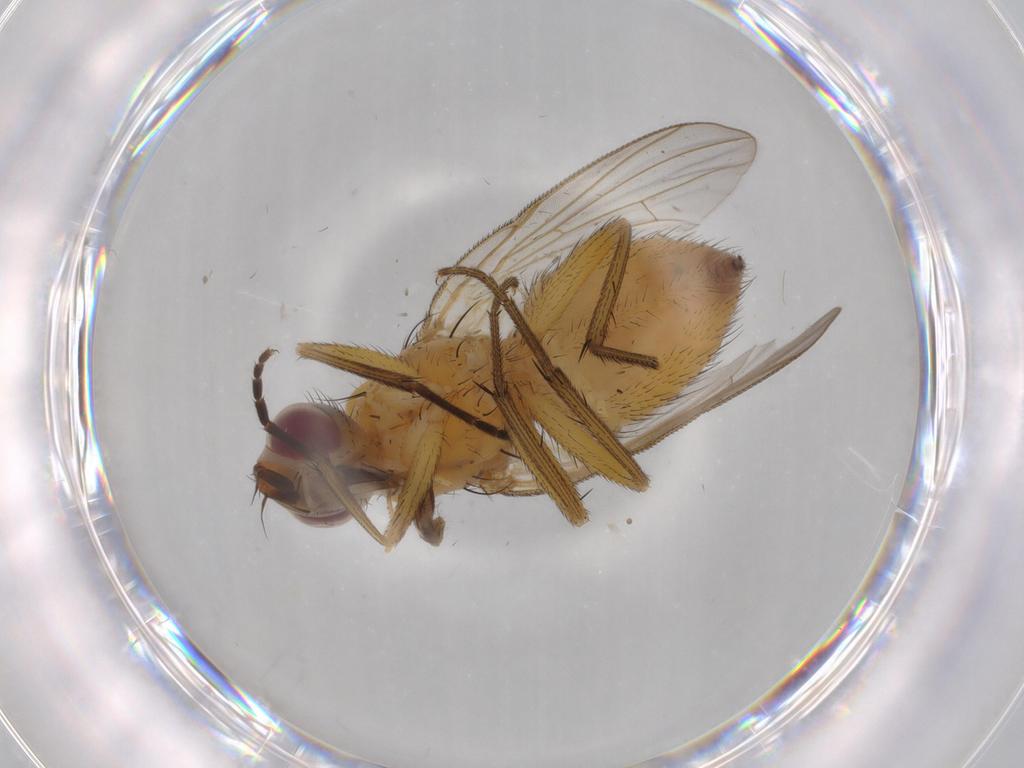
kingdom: Animalia
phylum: Arthropoda
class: Insecta
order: Diptera
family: Muscidae
